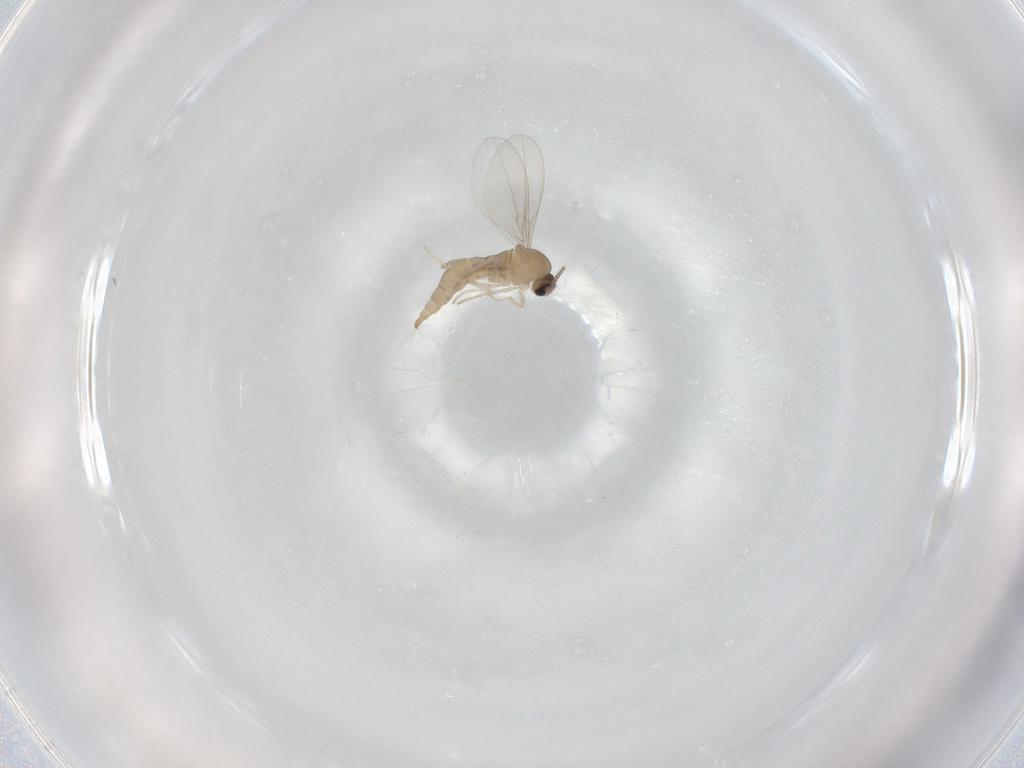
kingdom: Animalia
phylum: Arthropoda
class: Insecta
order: Diptera
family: Cecidomyiidae
